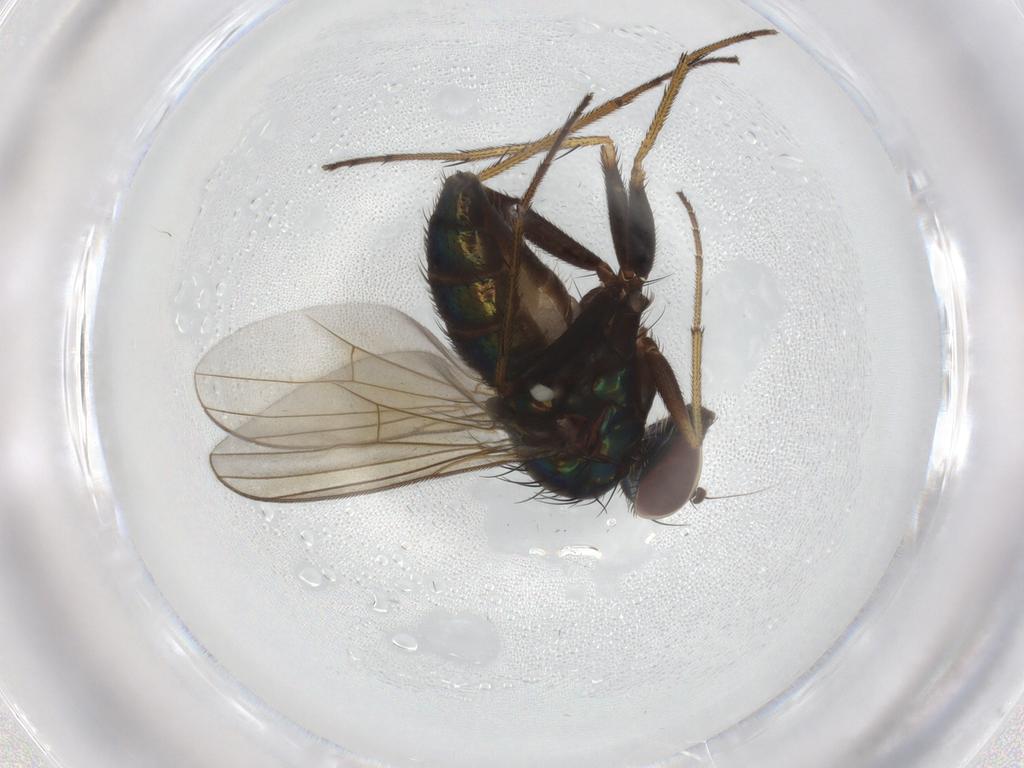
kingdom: Animalia
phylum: Arthropoda
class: Insecta
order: Diptera
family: Dolichopodidae
